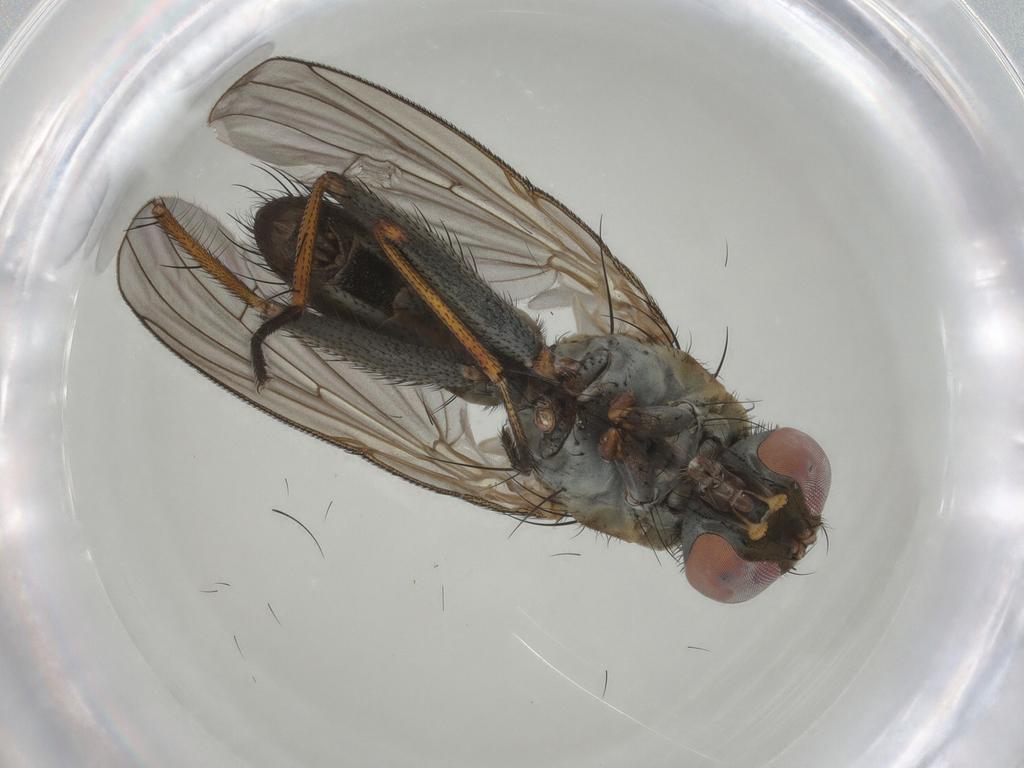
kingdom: Animalia
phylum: Arthropoda
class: Insecta
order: Diptera
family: Muscidae
